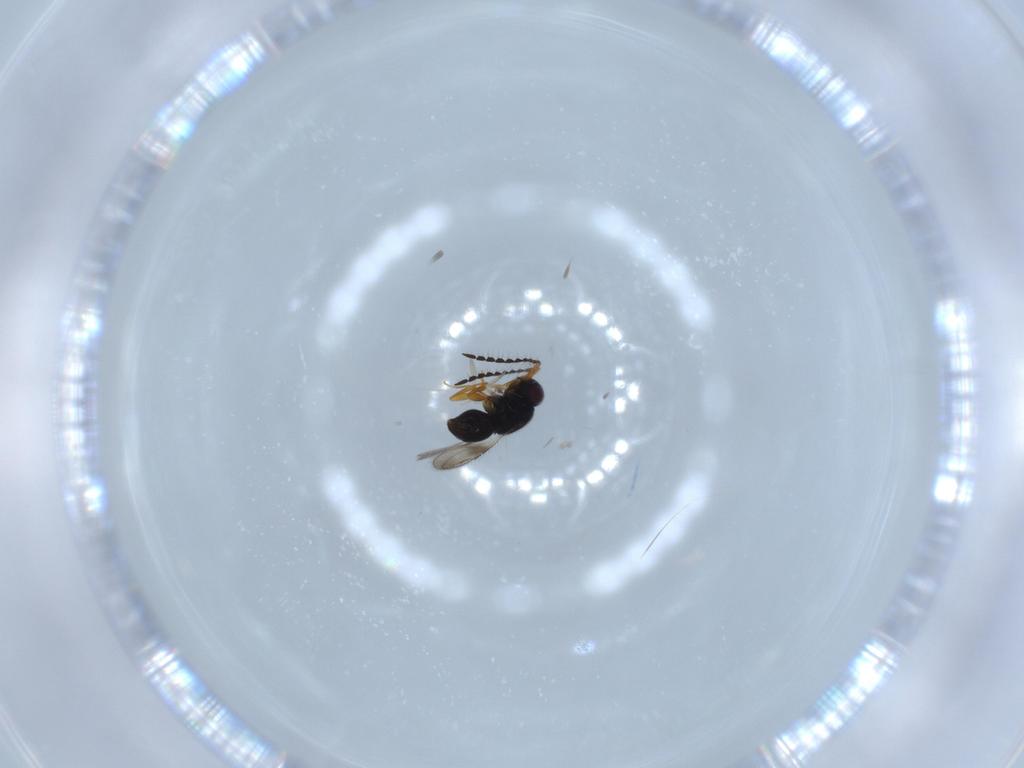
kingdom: Animalia
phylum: Arthropoda
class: Insecta
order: Hymenoptera
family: Scelionidae
